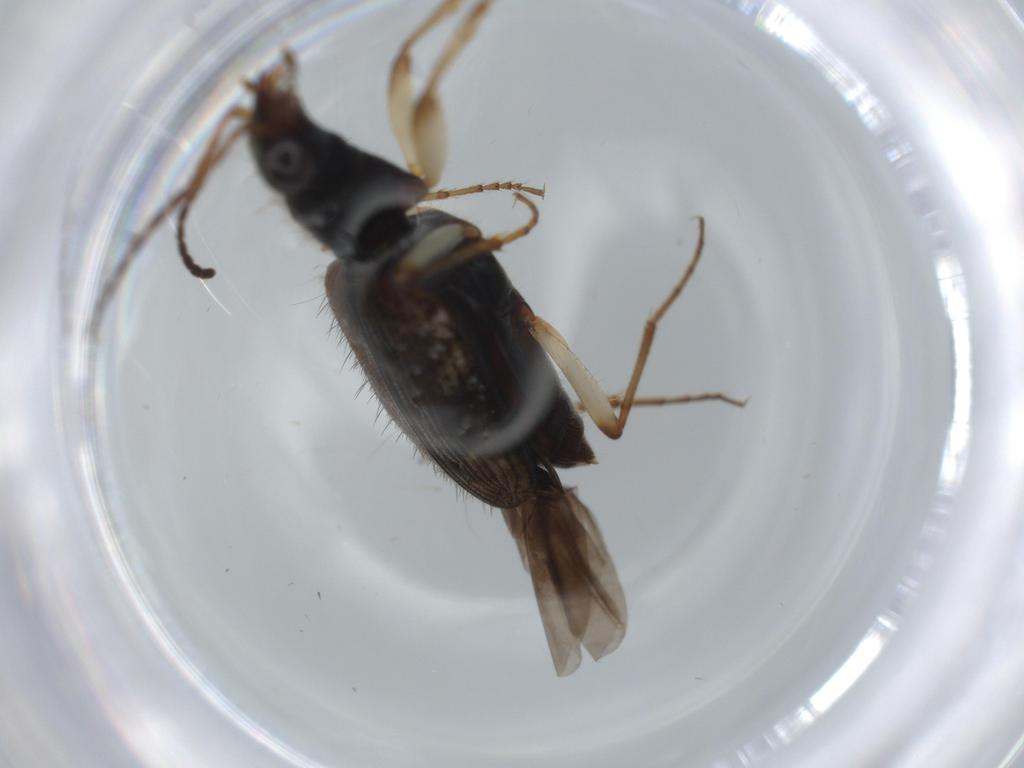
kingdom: Animalia
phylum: Arthropoda
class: Insecta
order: Coleoptera
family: Carabidae
